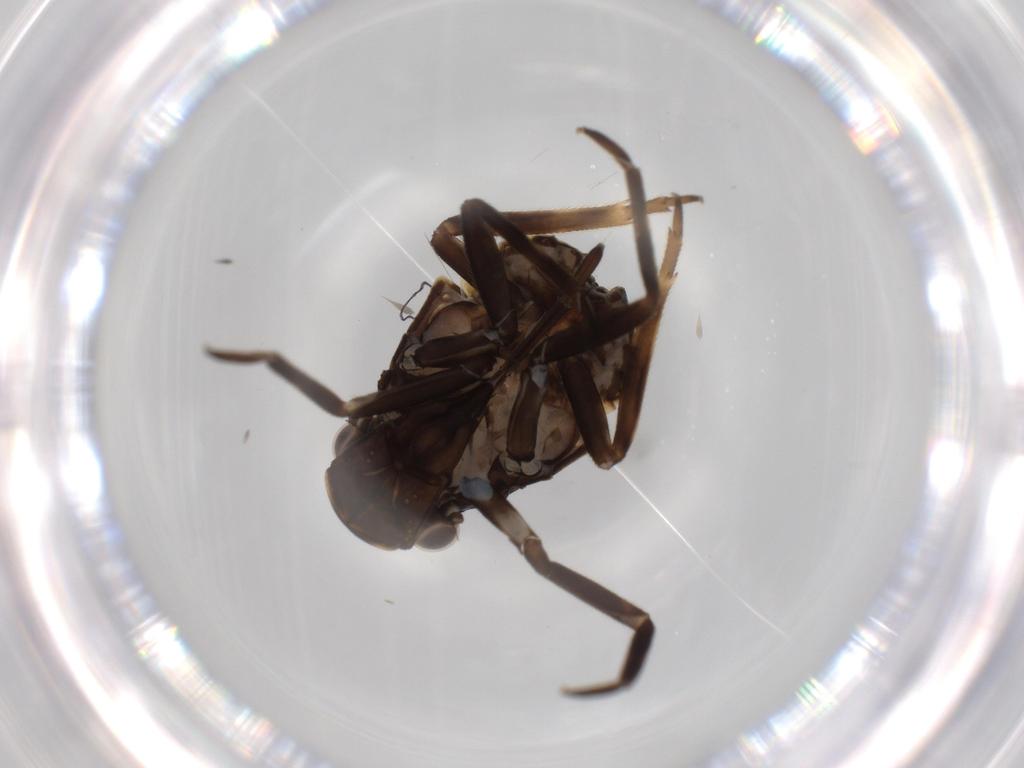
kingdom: Animalia
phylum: Arthropoda
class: Insecta
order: Hemiptera
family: Fulgoridae
